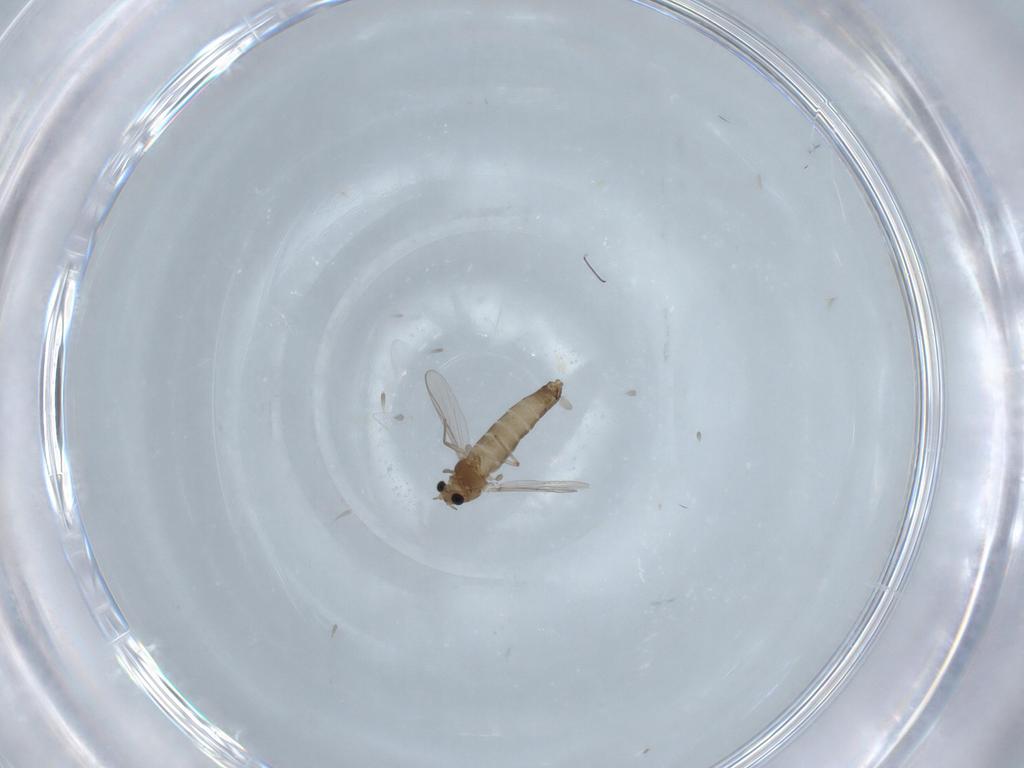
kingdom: Animalia
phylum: Arthropoda
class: Insecta
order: Diptera
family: Chironomidae
